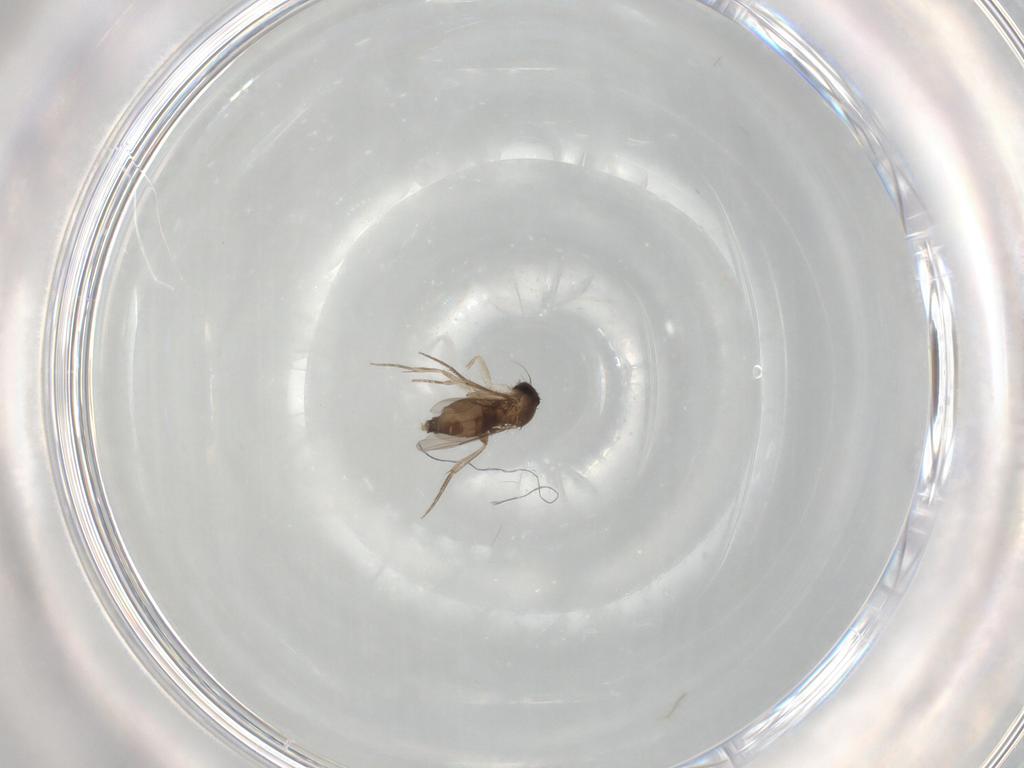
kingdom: Animalia
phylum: Arthropoda
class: Insecta
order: Diptera
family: Phoridae
